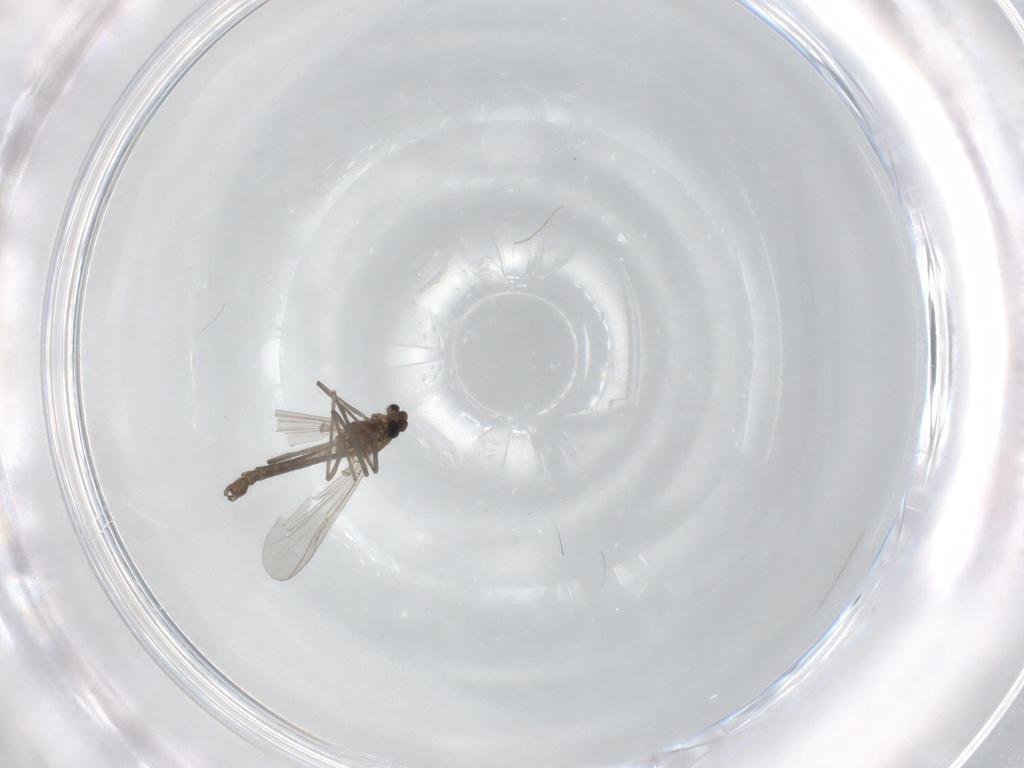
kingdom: Animalia
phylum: Arthropoda
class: Insecta
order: Diptera
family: Chironomidae
